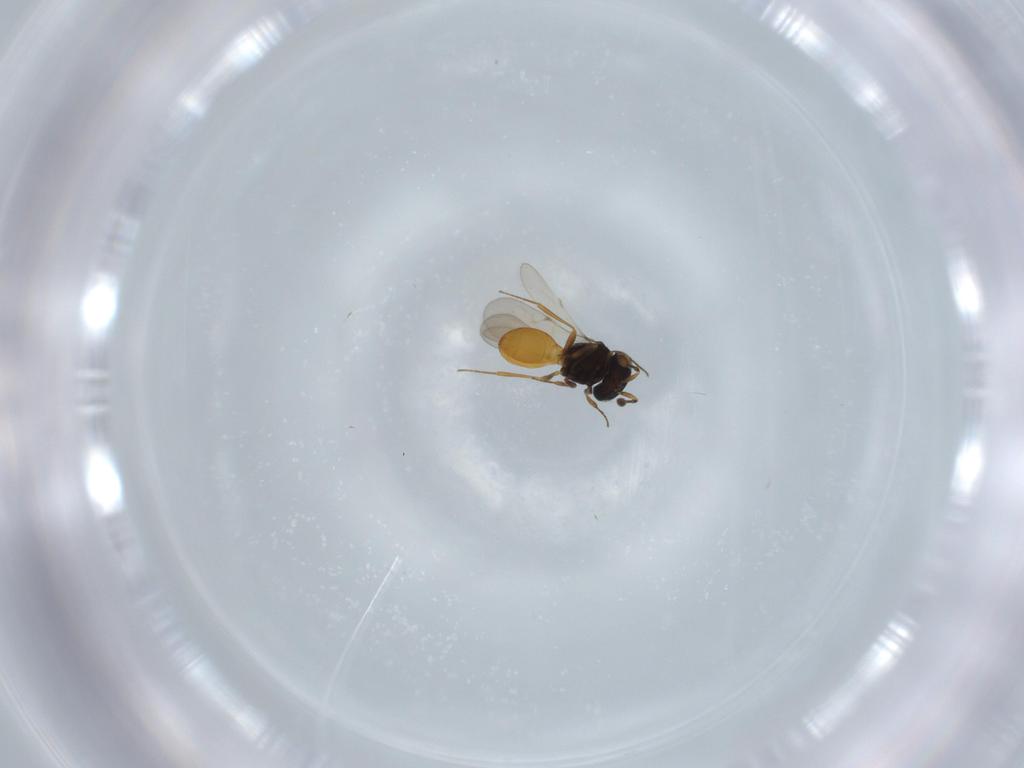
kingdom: Animalia
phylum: Arthropoda
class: Insecta
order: Hymenoptera
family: Scelionidae
